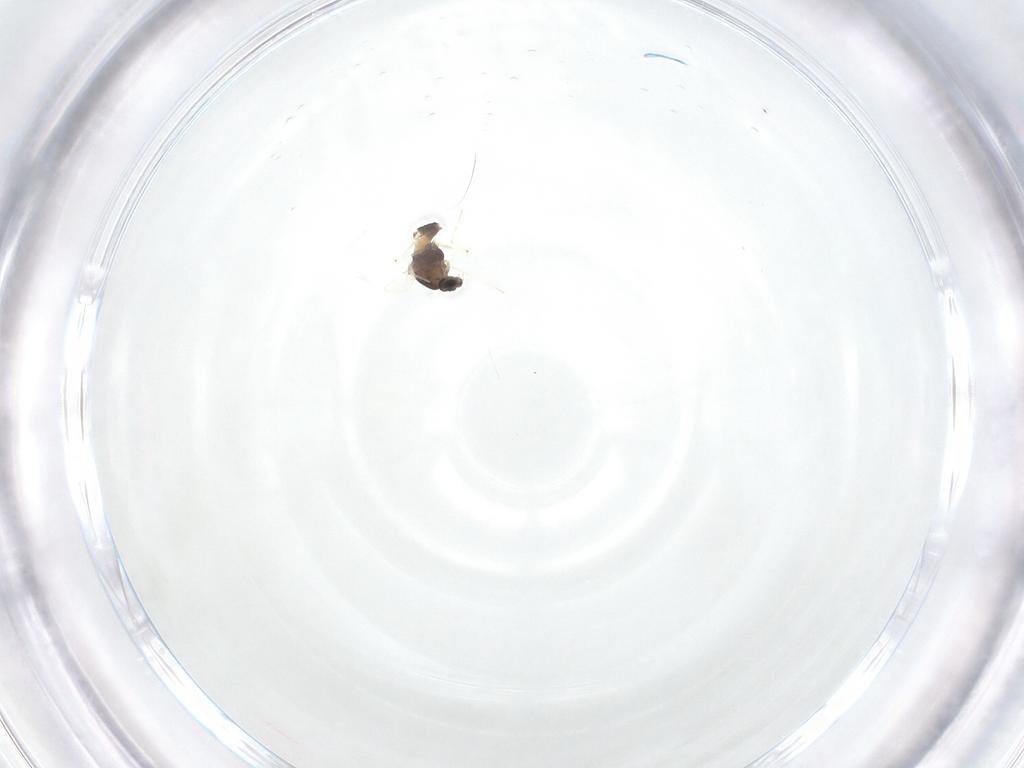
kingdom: Animalia
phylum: Arthropoda
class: Insecta
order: Diptera
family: Chironomidae
